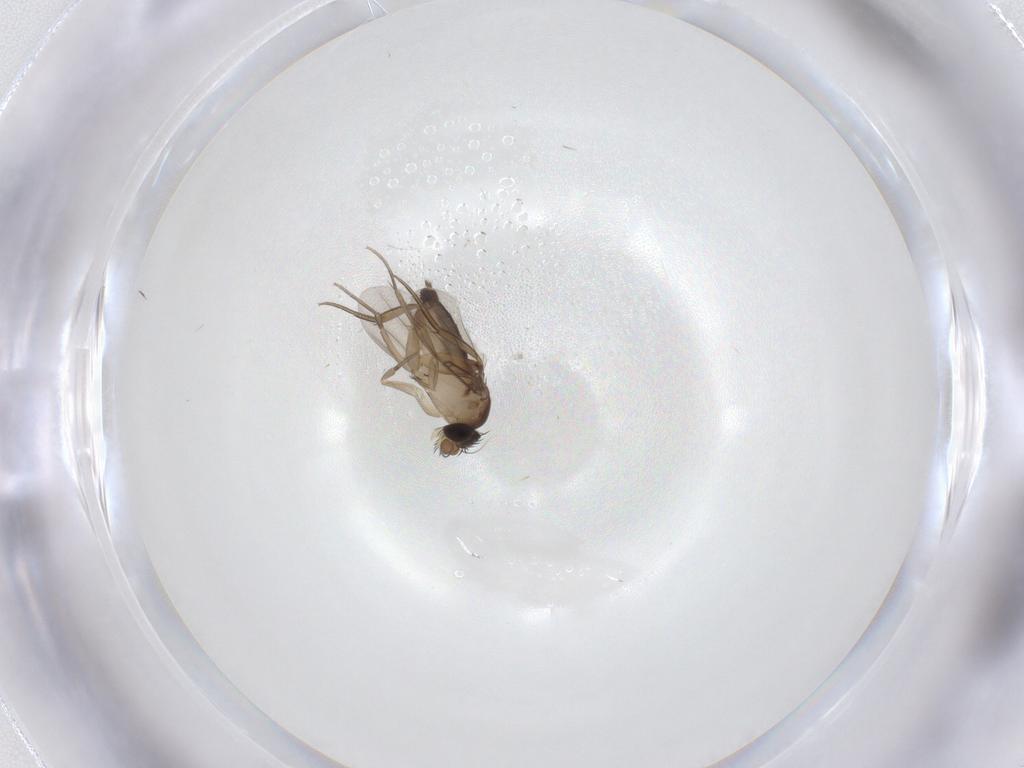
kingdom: Animalia
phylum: Arthropoda
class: Insecta
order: Diptera
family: Phoridae
